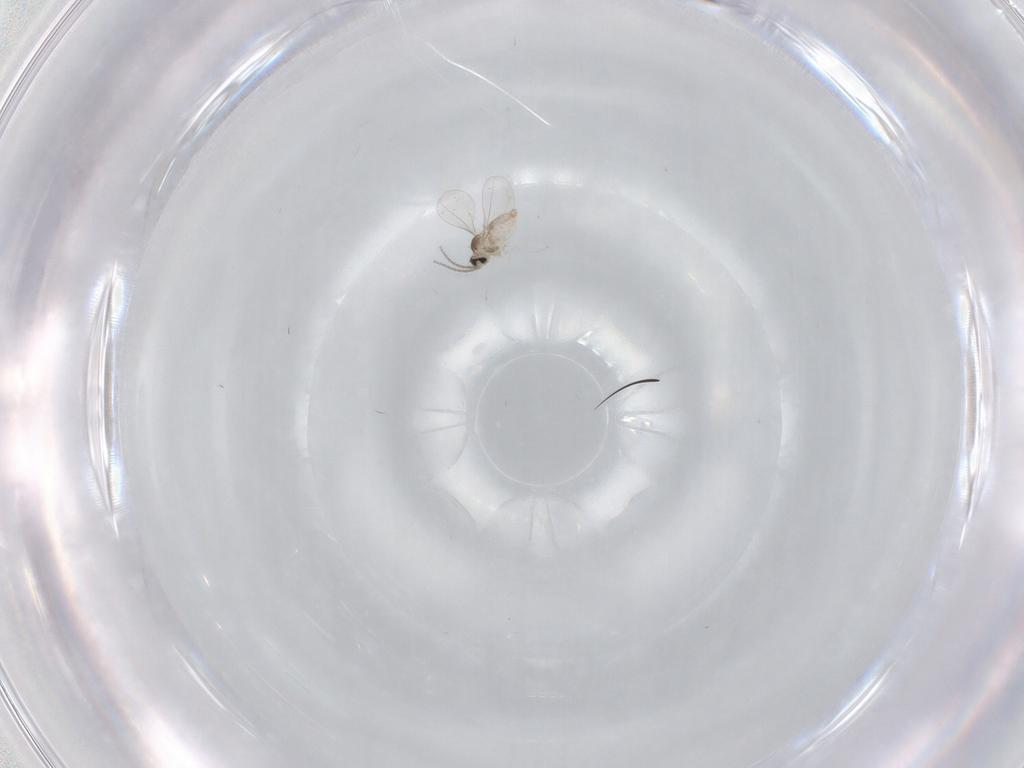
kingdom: Animalia
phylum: Arthropoda
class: Insecta
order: Diptera
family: Cecidomyiidae
